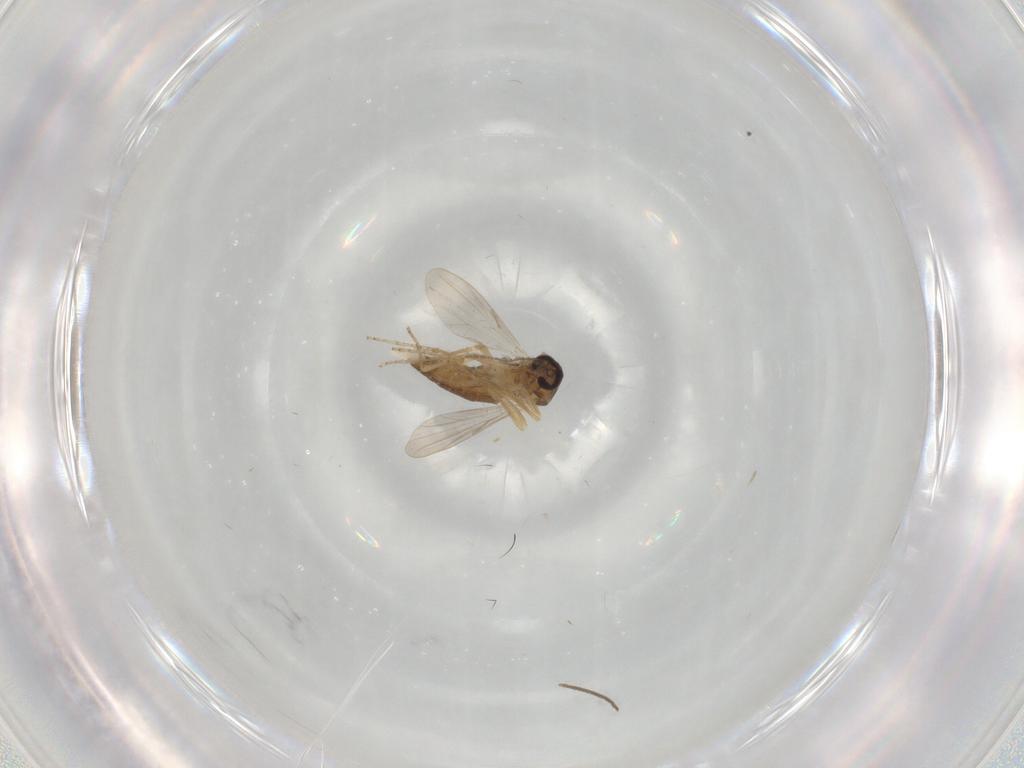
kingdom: Animalia
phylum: Arthropoda
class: Insecta
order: Diptera
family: Ceratopogonidae
